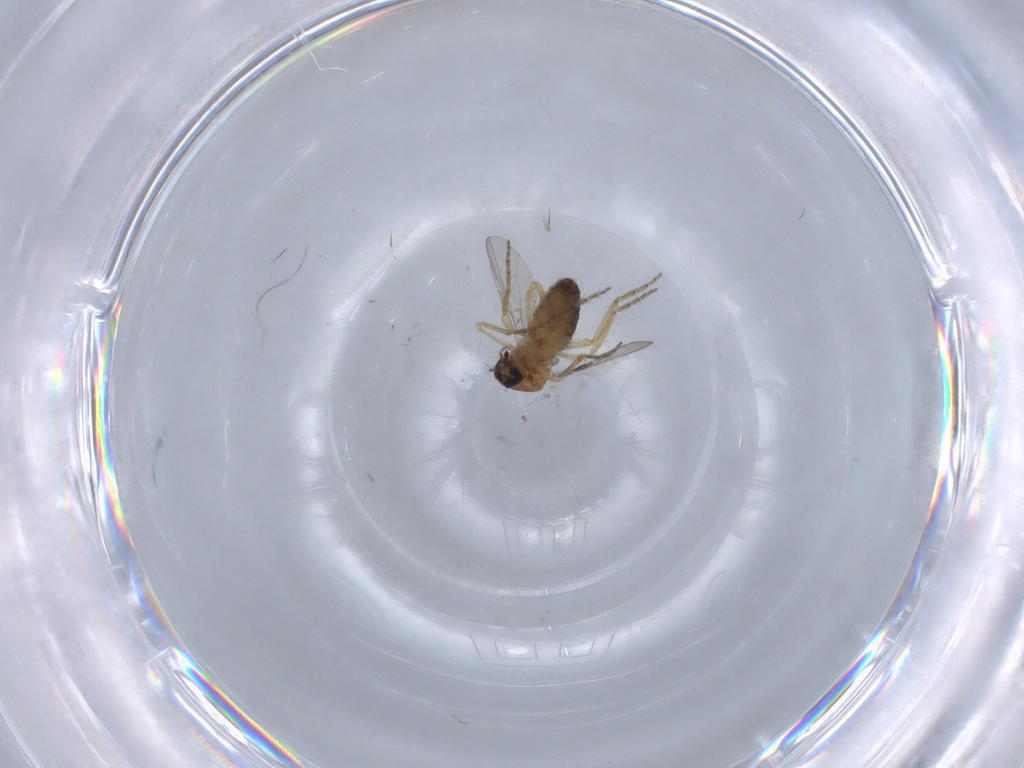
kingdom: Animalia
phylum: Arthropoda
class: Insecta
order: Diptera
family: Ceratopogonidae
